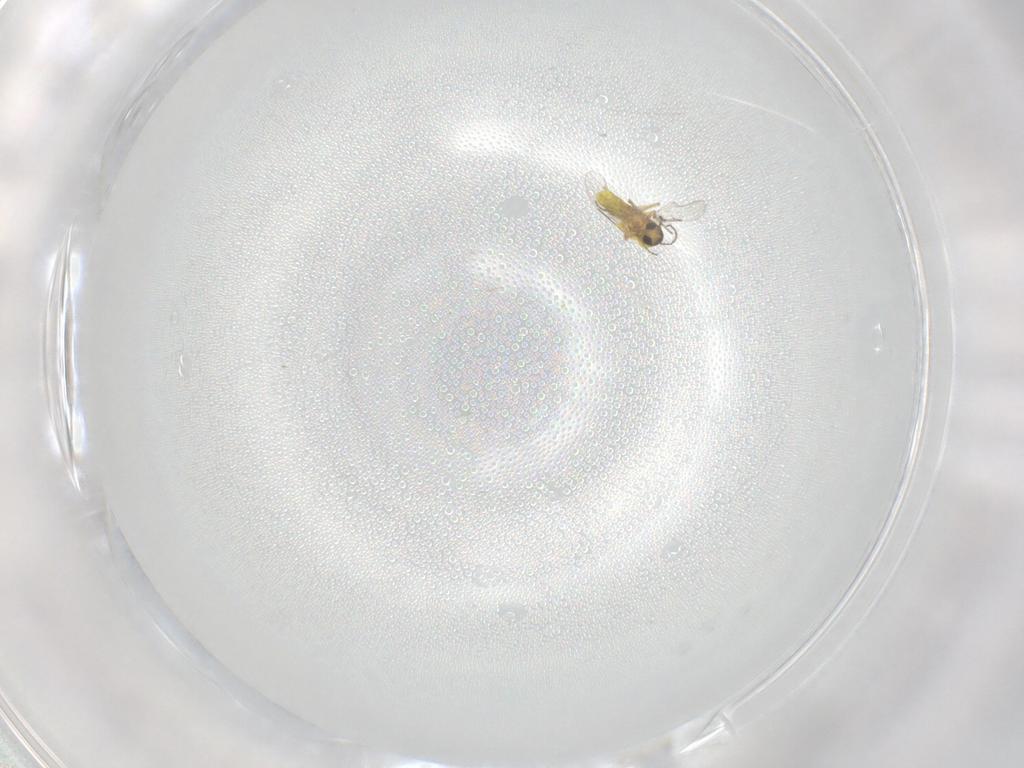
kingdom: Animalia
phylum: Arthropoda
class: Insecta
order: Diptera
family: Ceratopogonidae
